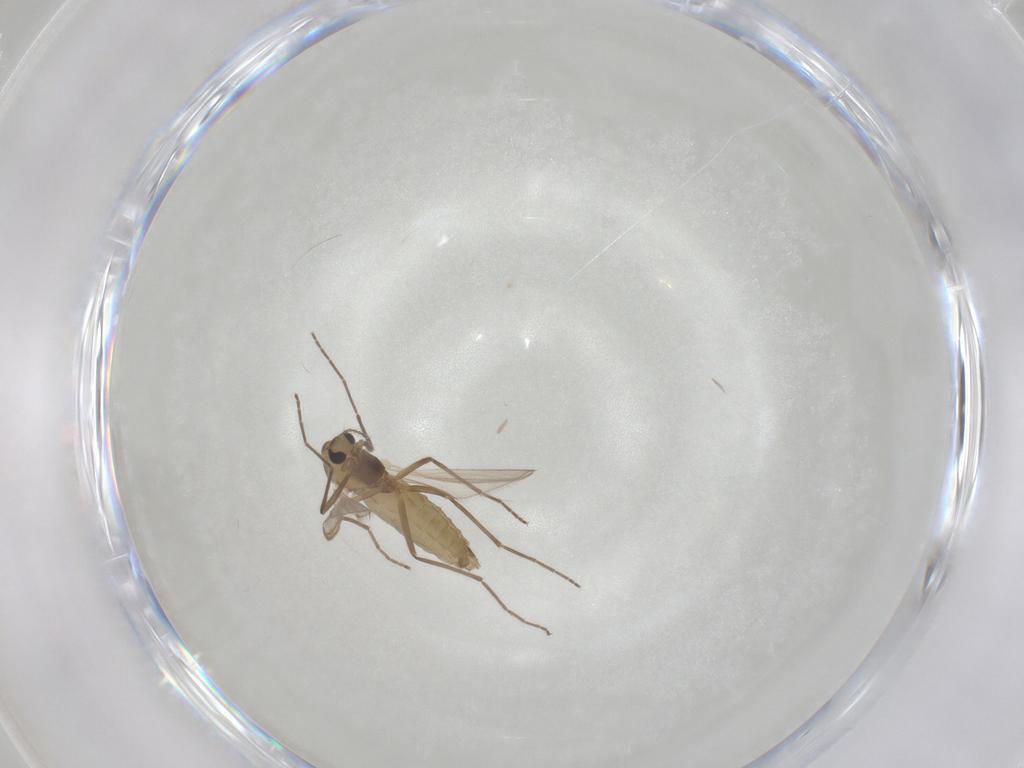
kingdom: Animalia
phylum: Arthropoda
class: Insecta
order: Diptera
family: Chironomidae
